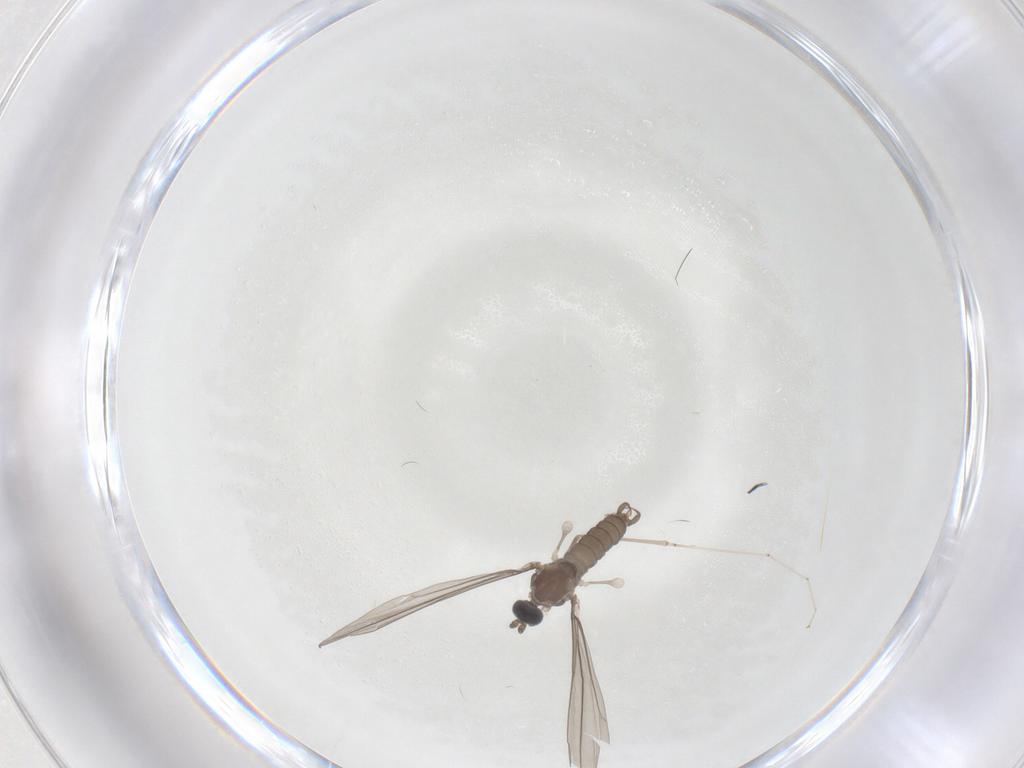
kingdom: Animalia
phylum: Arthropoda
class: Insecta
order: Diptera
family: Cecidomyiidae
